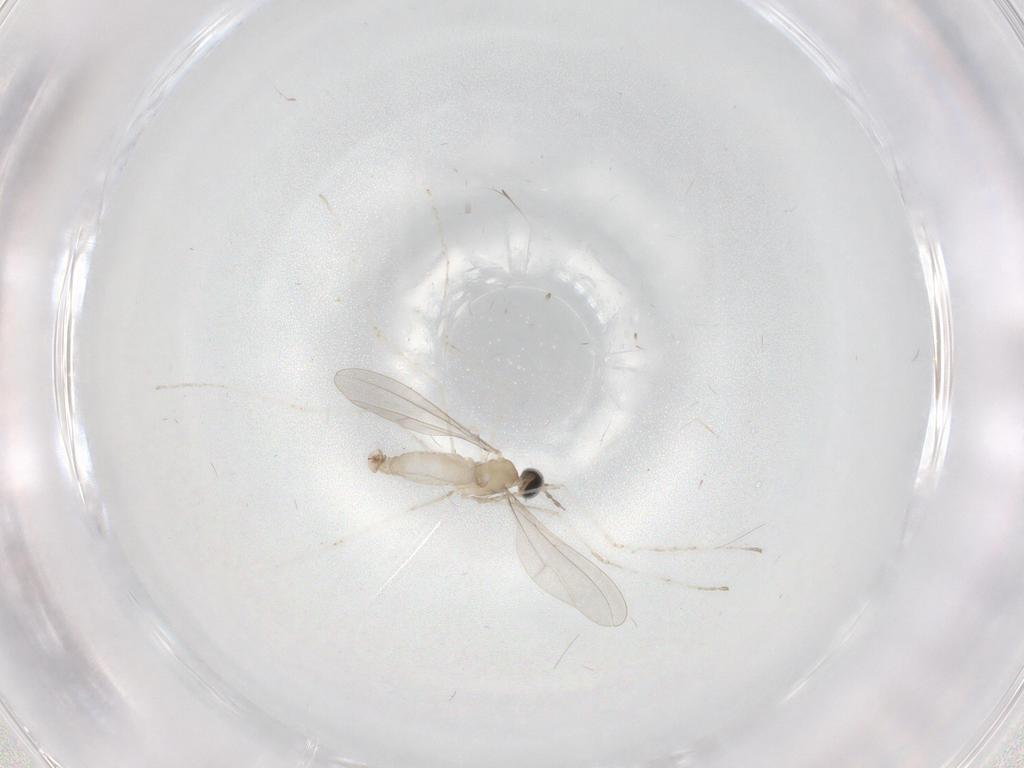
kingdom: Animalia
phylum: Arthropoda
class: Insecta
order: Diptera
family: Cecidomyiidae
